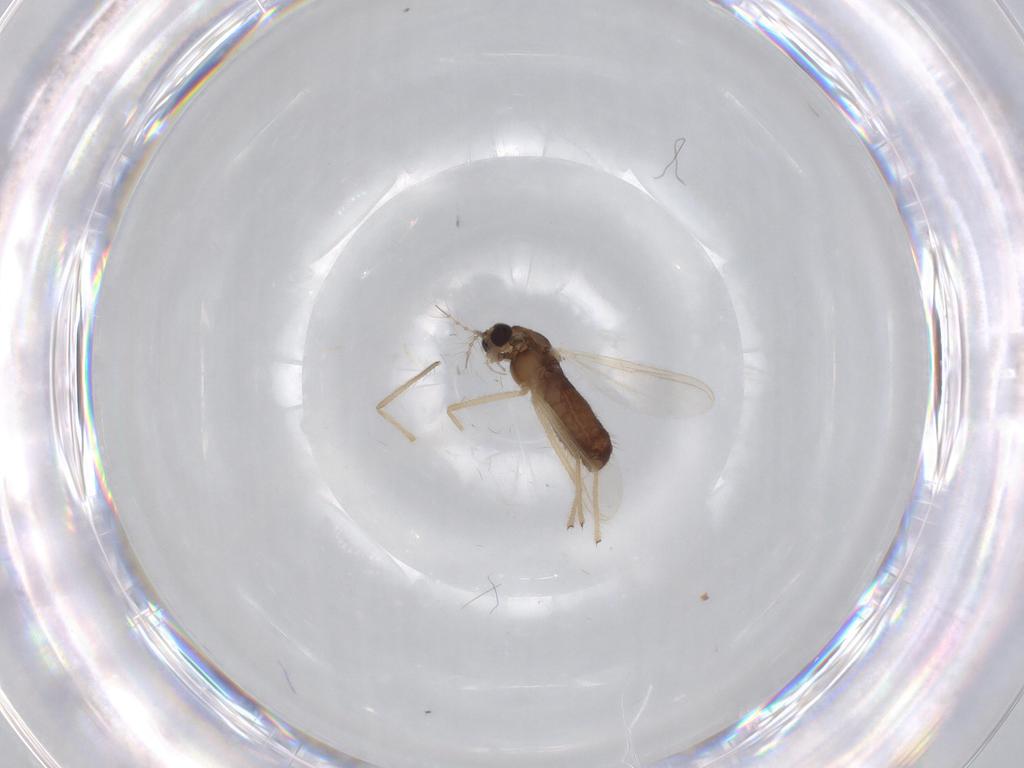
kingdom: Animalia
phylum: Arthropoda
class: Insecta
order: Diptera
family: Chironomidae
